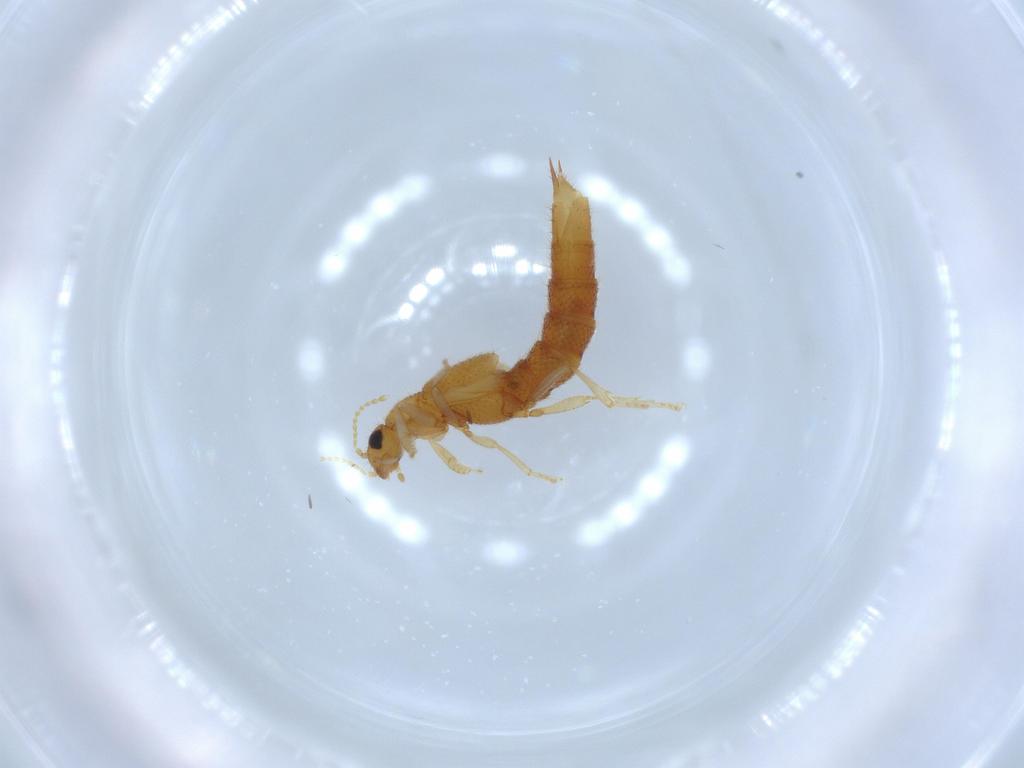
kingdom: Animalia
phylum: Arthropoda
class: Insecta
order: Coleoptera
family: Staphylinidae
